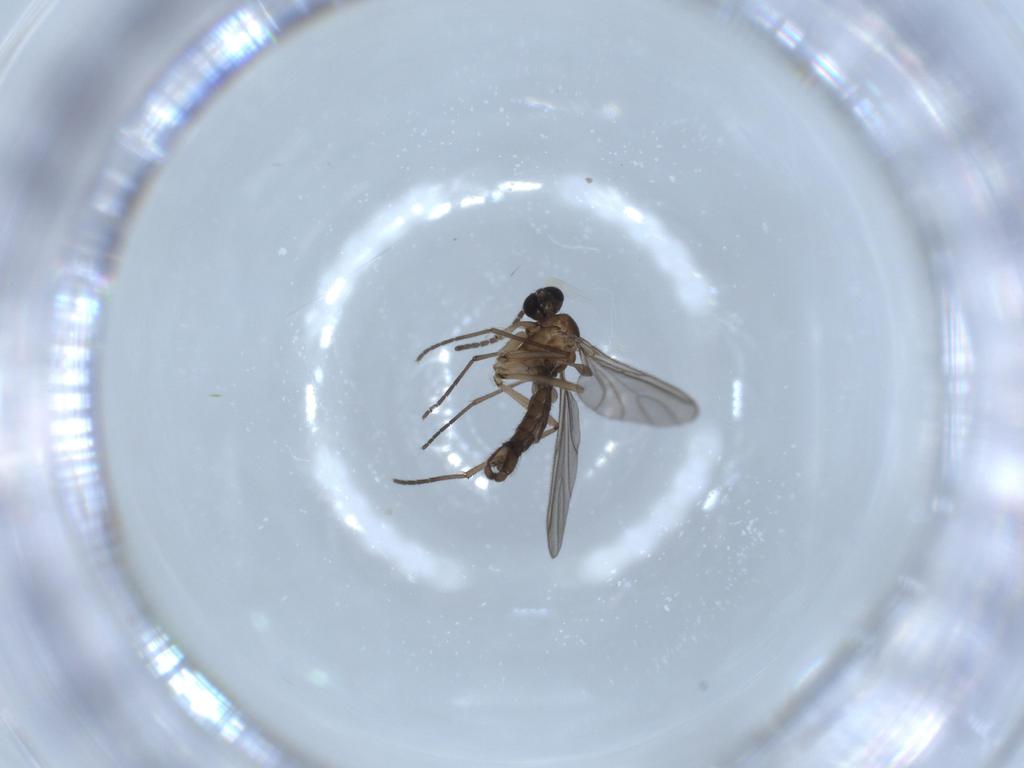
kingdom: Animalia
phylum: Arthropoda
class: Insecta
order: Diptera
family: Sciaridae
